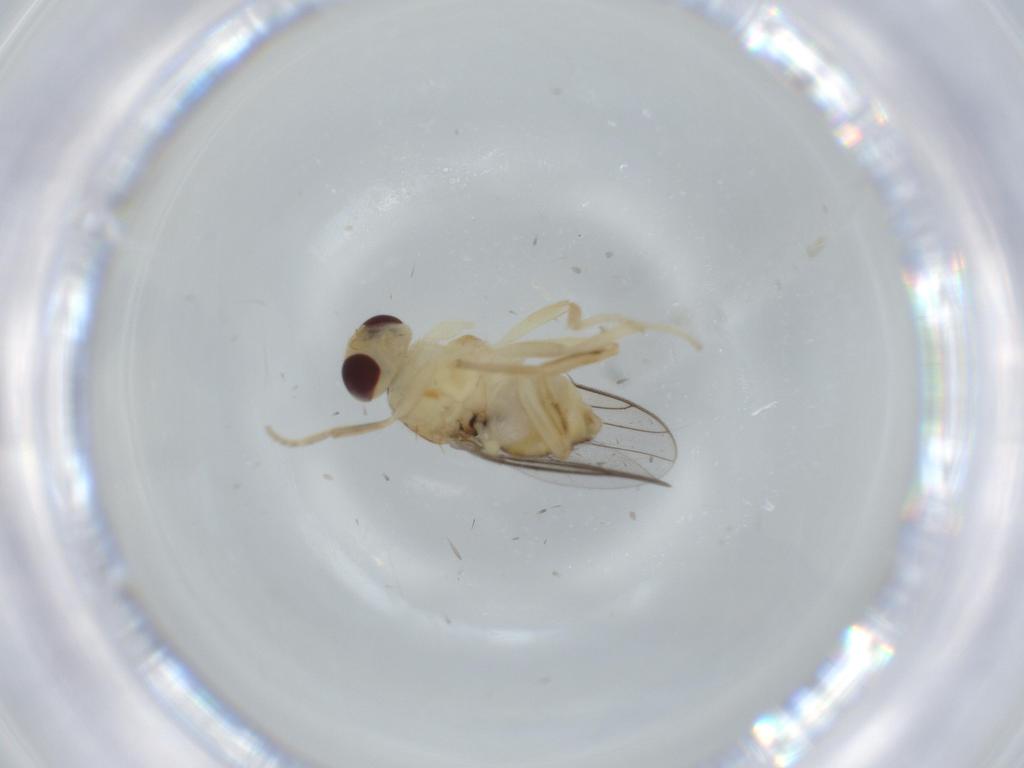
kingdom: Animalia
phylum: Arthropoda
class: Insecta
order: Diptera
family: Chloropidae
